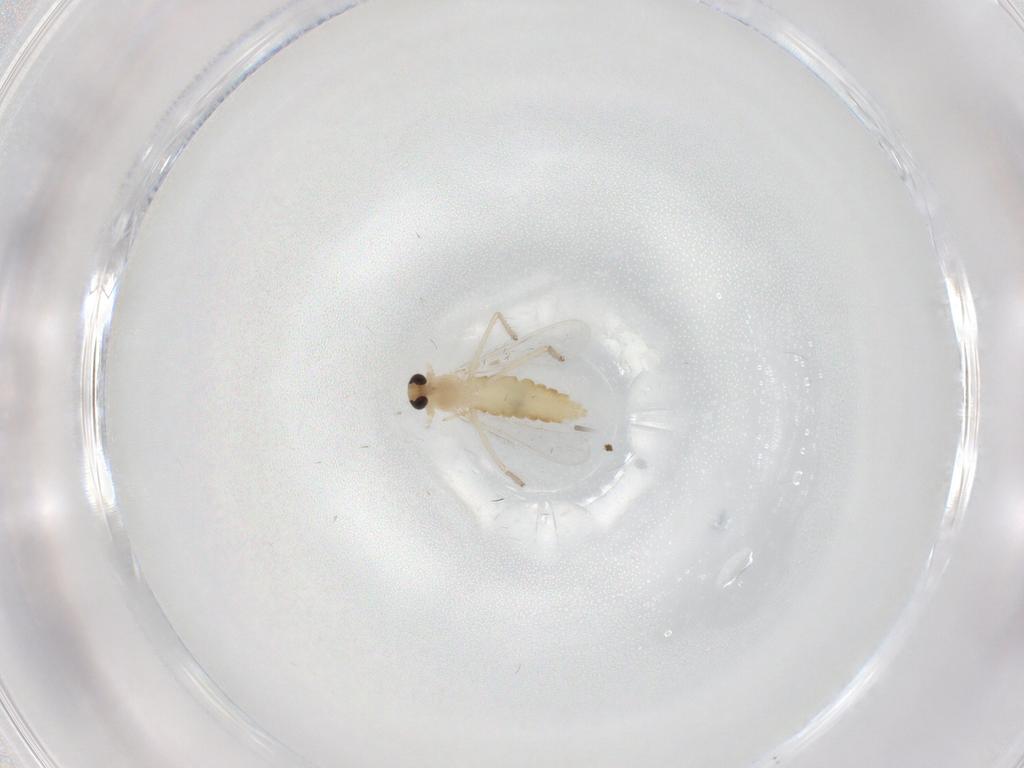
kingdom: Animalia
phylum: Arthropoda
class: Insecta
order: Diptera
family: Chironomidae
